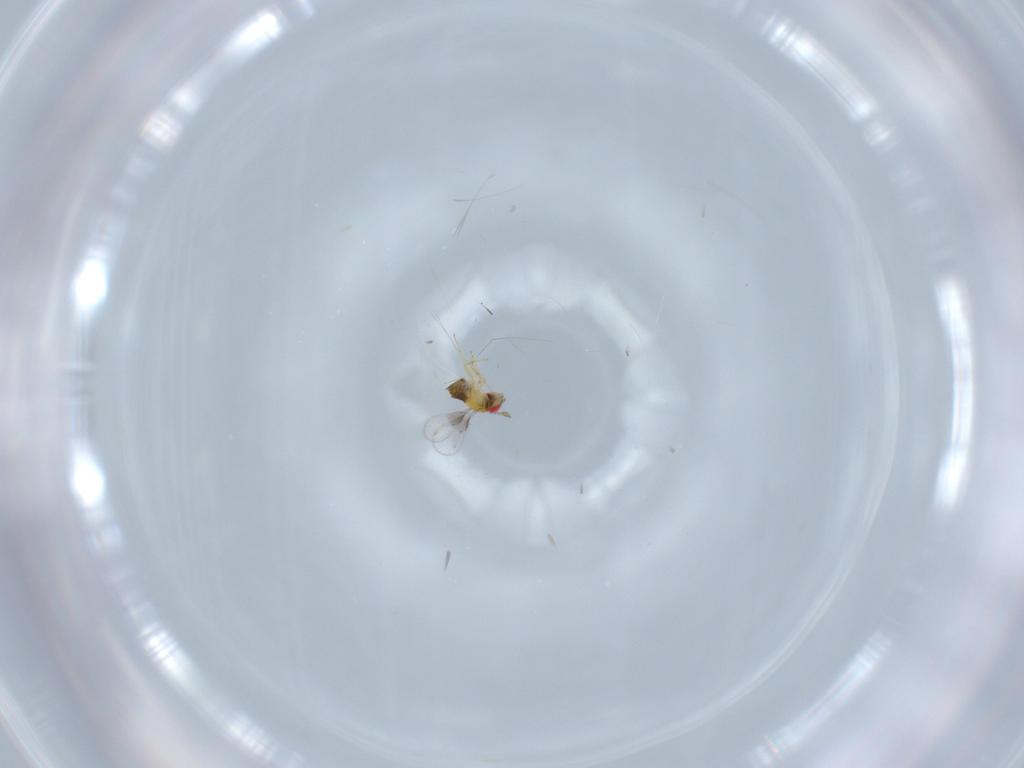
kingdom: Animalia
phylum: Arthropoda
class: Insecta
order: Hymenoptera
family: Trichogrammatidae
